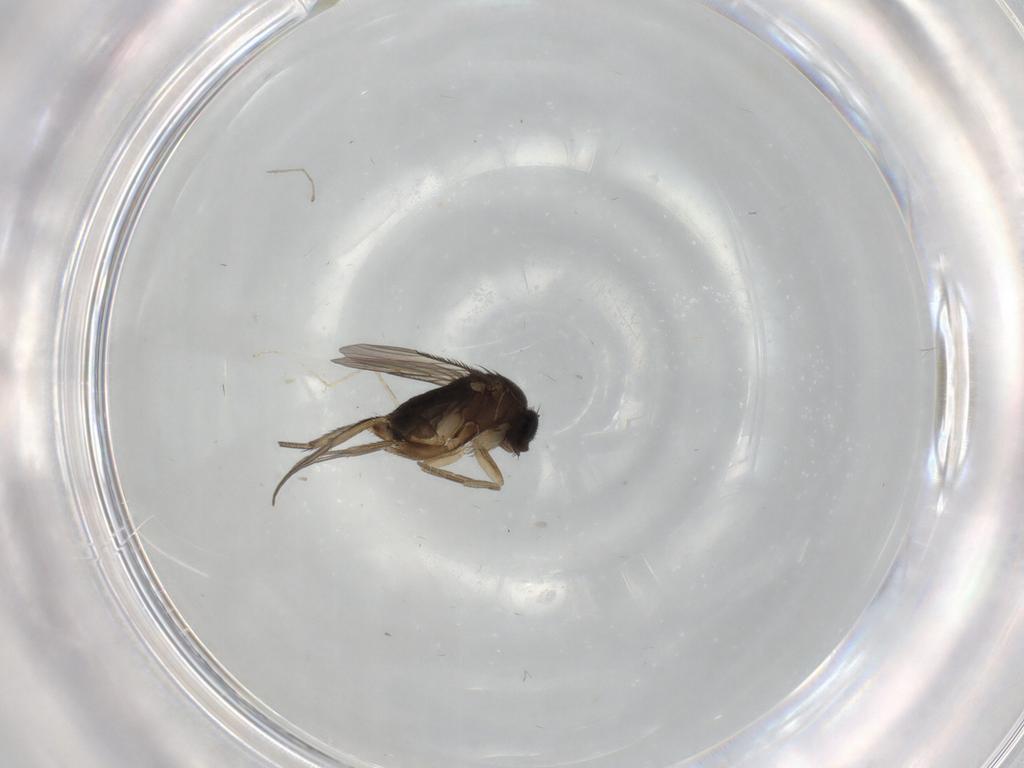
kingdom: Animalia
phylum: Arthropoda
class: Insecta
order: Diptera
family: Phoridae
